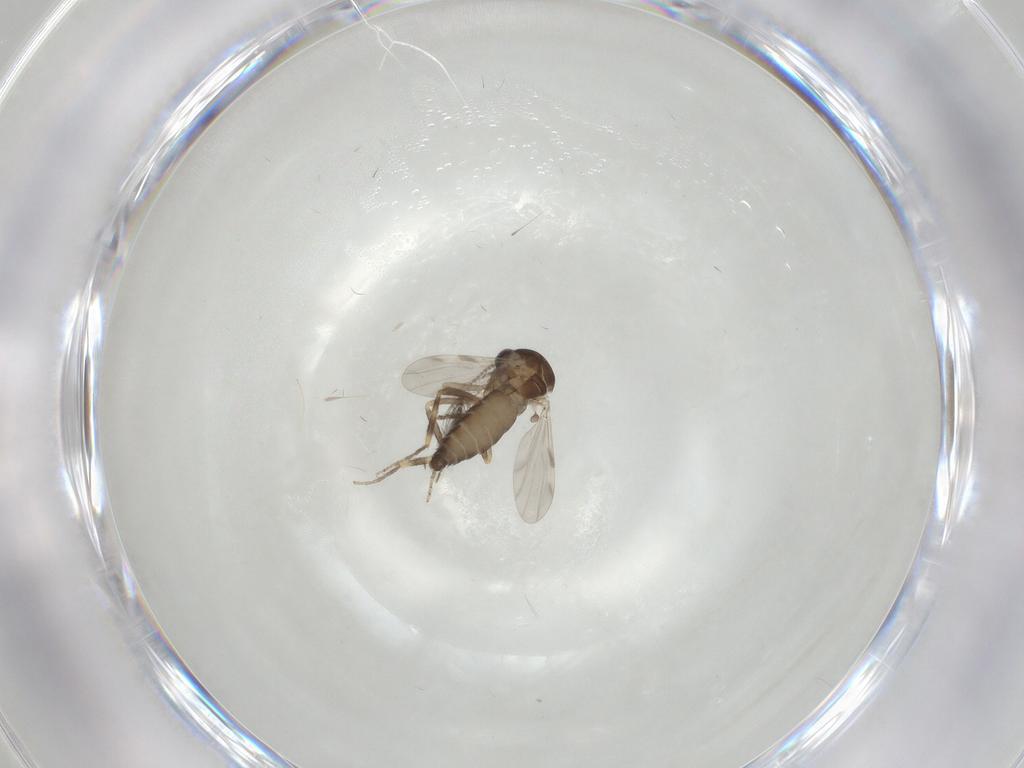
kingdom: Animalia
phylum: Arthropoda
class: Insecta
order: Diptera
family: Ceratopogonidae
